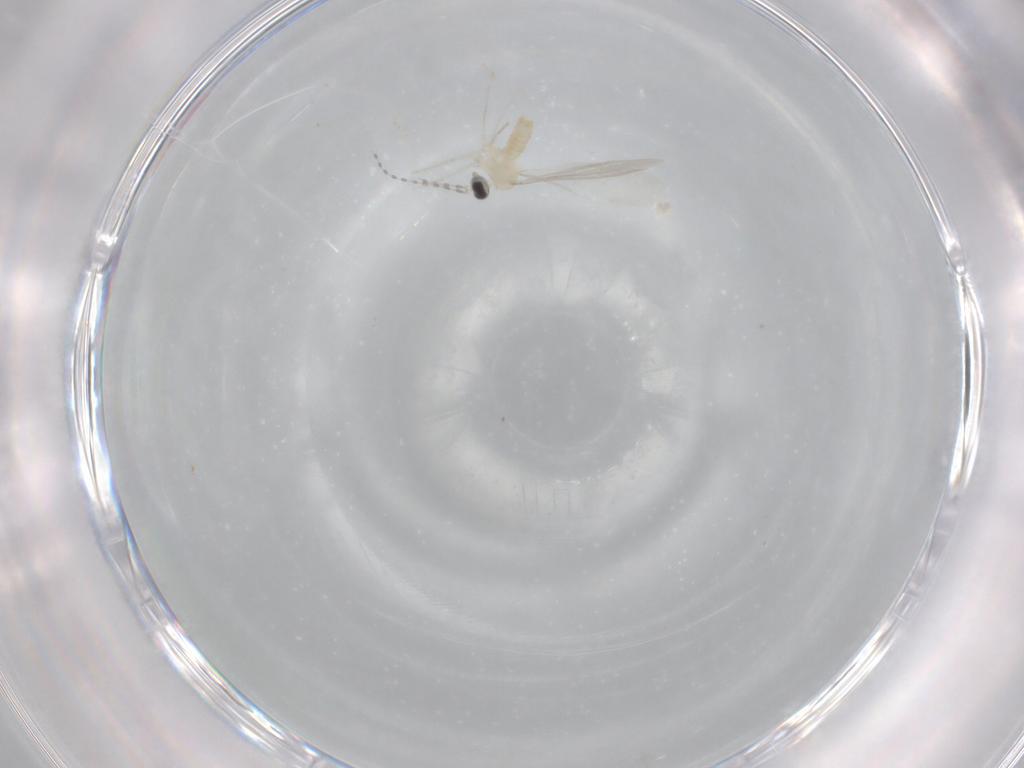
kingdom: Animalia
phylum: Arthropoda
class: Insecta
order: Diptera
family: Cecidomyiidae
